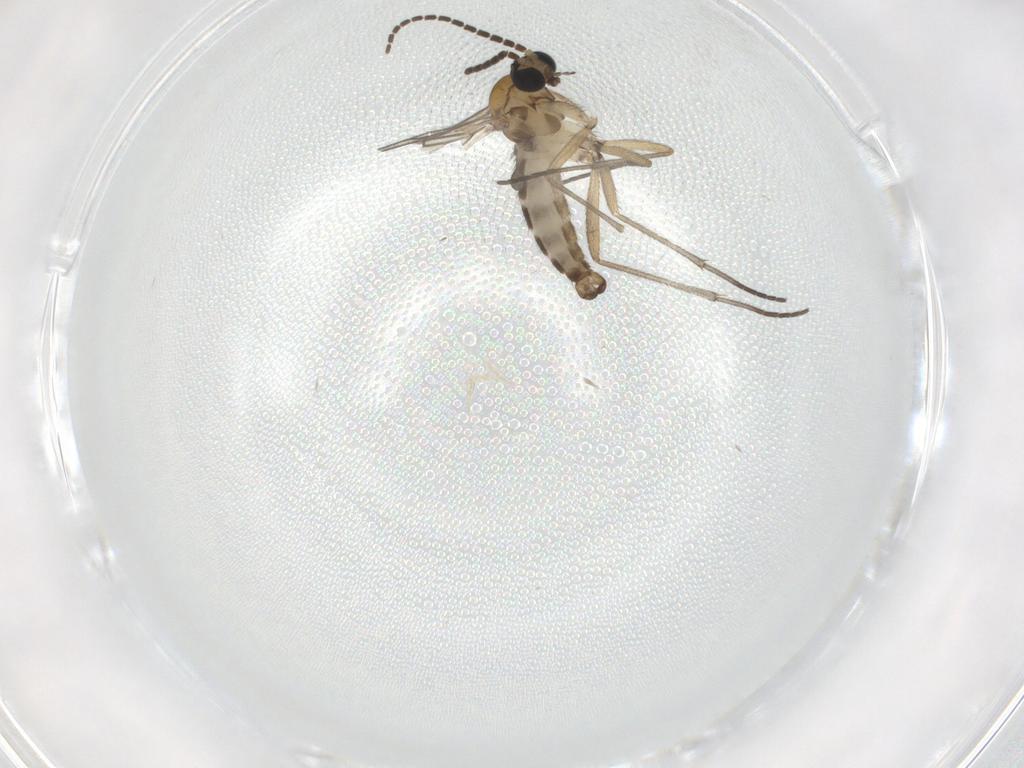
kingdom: Animalia
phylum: Arthropoda
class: Insecta
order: Diptera
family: Sciaridae
